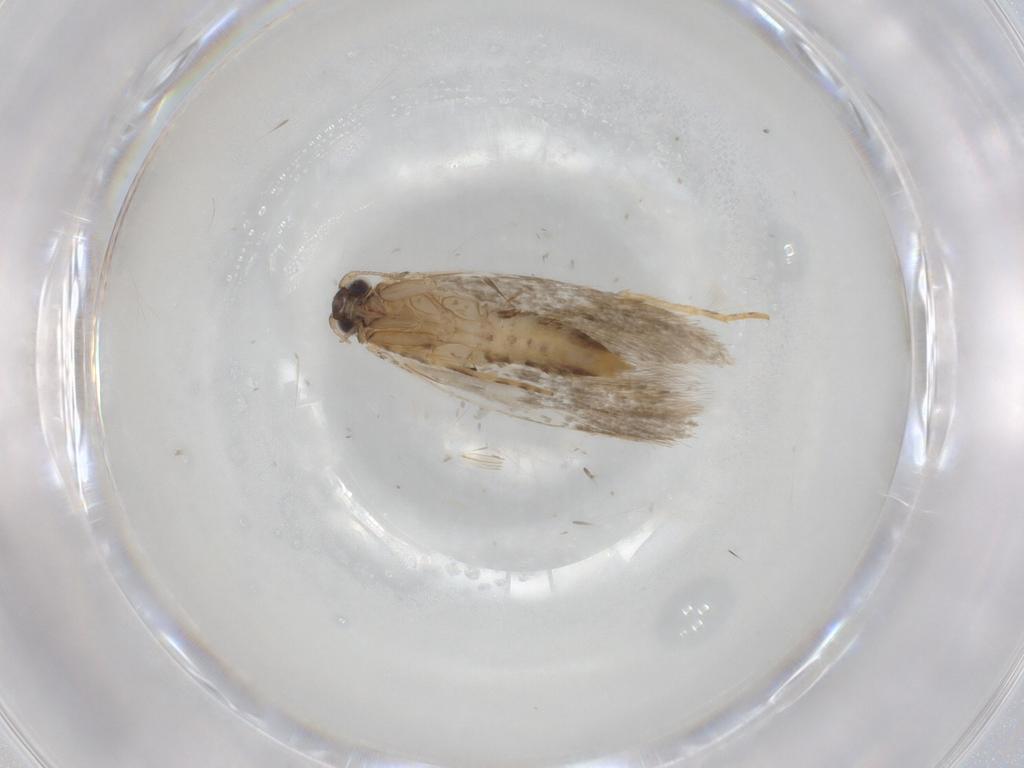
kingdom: Animalia
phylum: Arthropoda
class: Insecta
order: Lepidoptera
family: Tineidae
